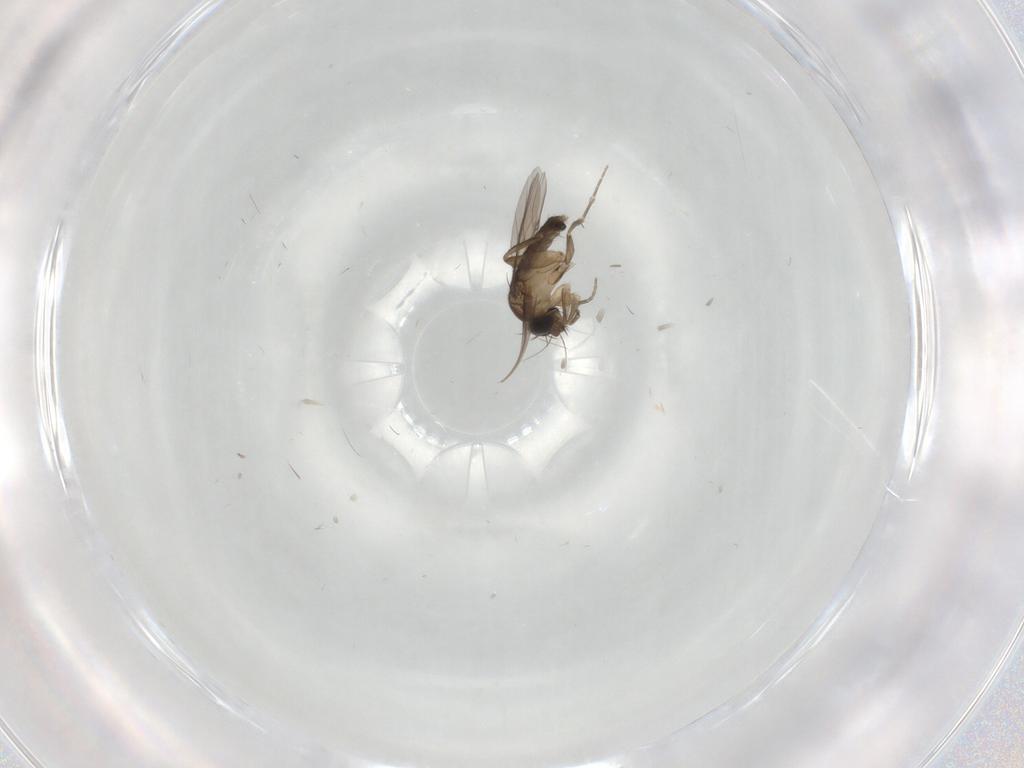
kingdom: Animalia
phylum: Arthropoda
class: Insecta
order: Diptera
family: Phoridae
